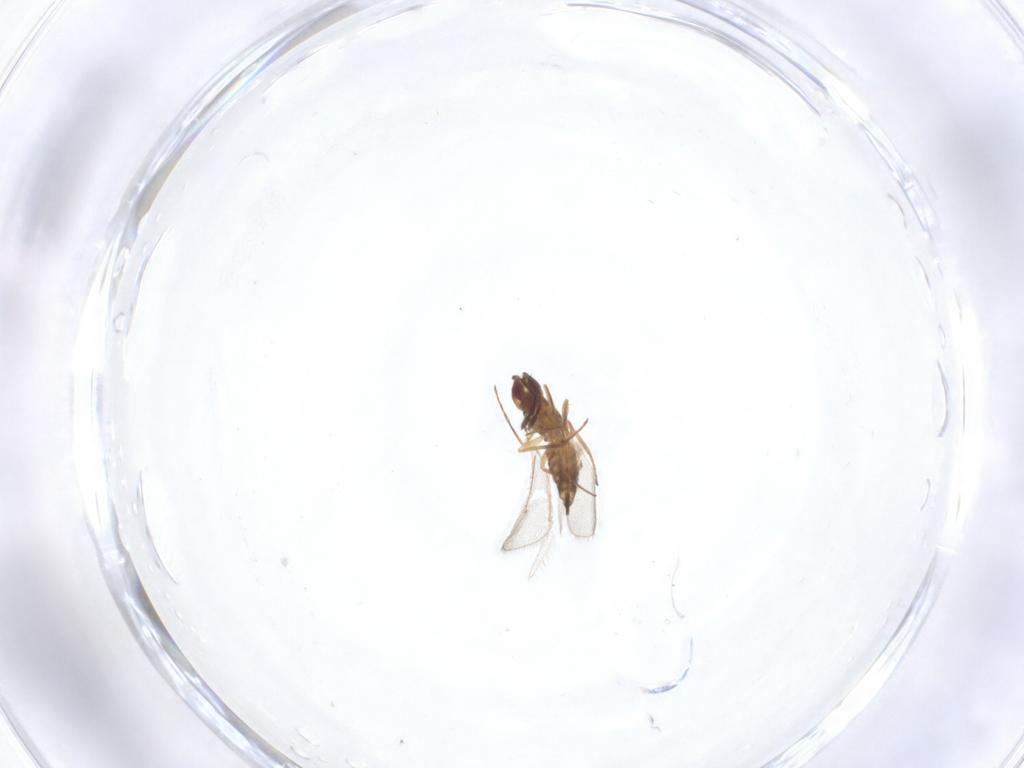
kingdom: Animalia
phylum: Arthropoda
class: Insecta
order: Hymenoptera
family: Eulophidae
